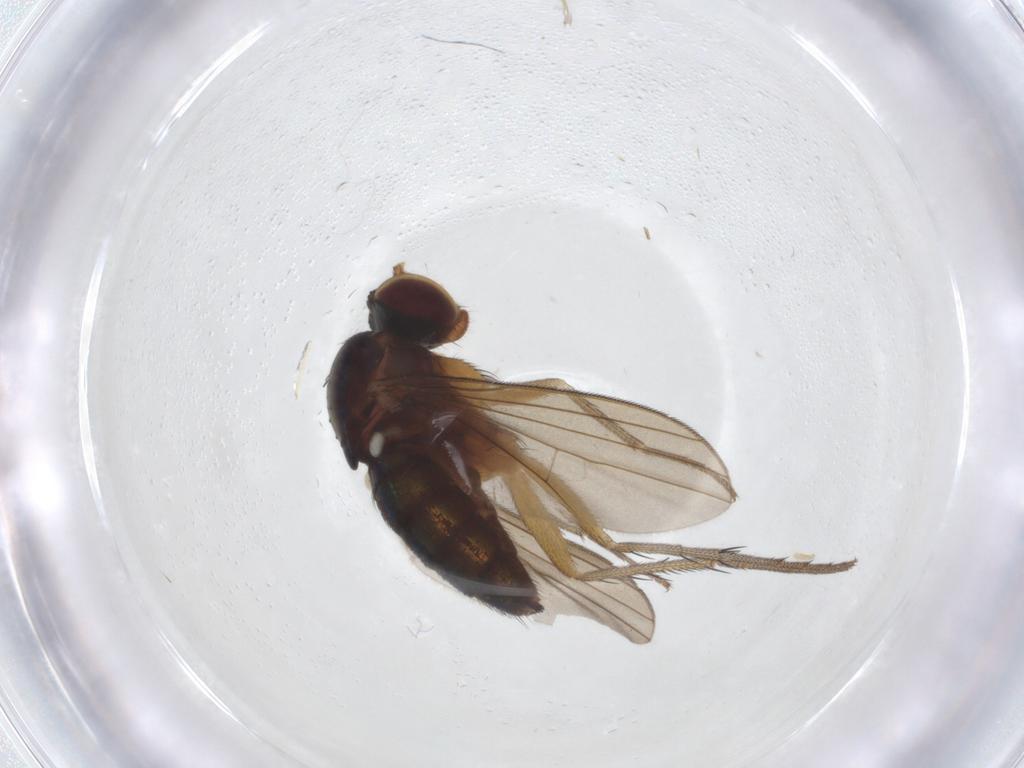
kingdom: Animalia
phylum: Arthropoda
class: Insecta
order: Diptera
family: Dolichopodidae
